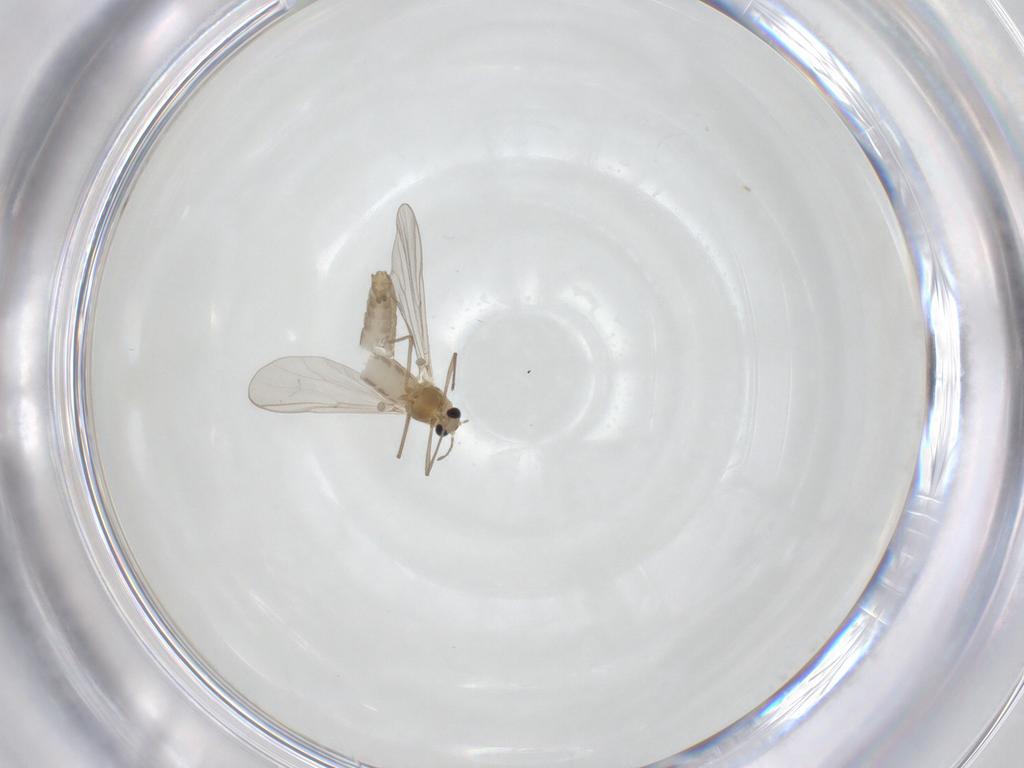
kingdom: Animalia
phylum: Arthropoda
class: Insecta
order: Diptera
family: Chironomidae
